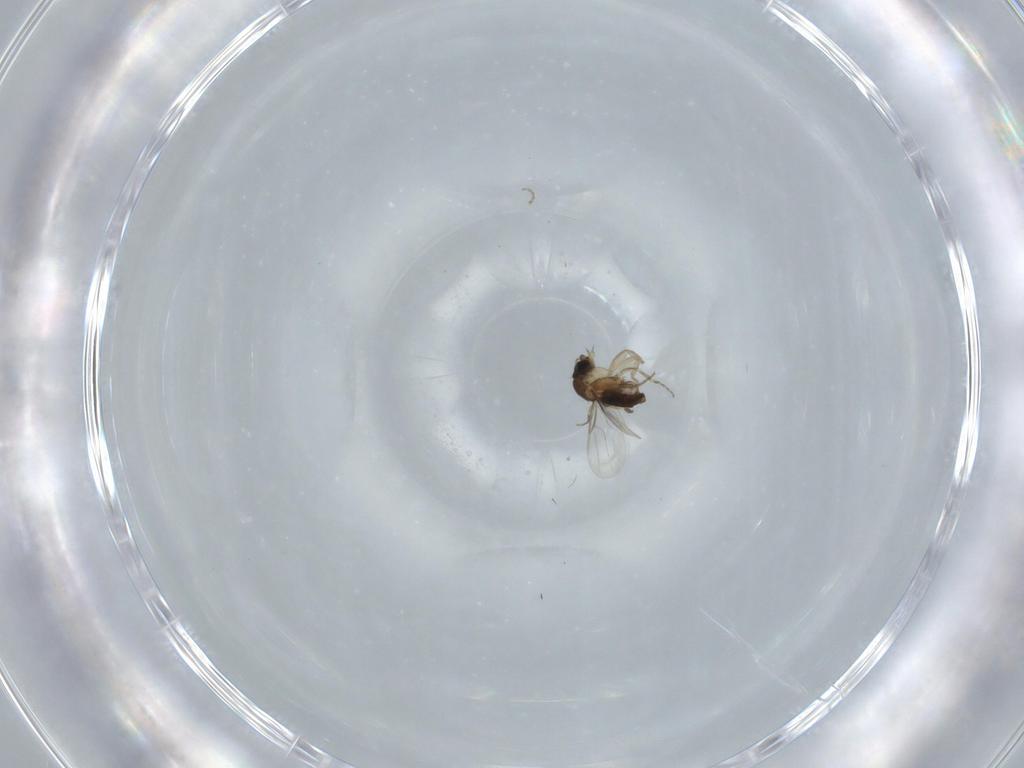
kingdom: Animalia
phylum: Arthropoda
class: Insecta
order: Diptera
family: Phoridae
